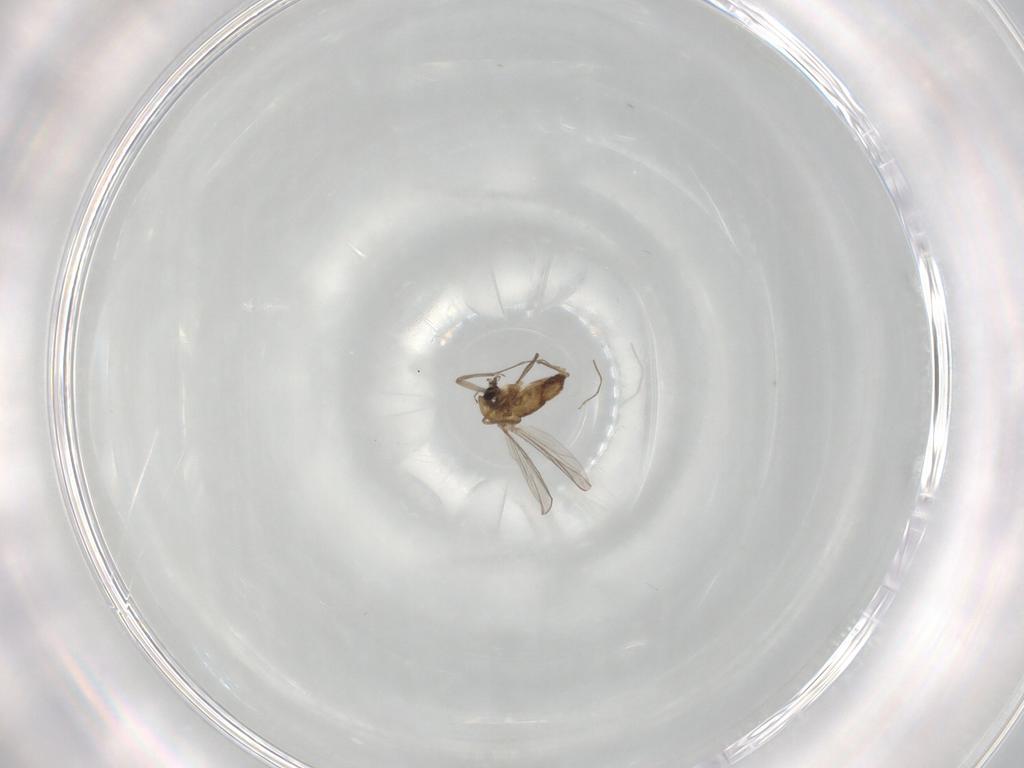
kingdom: Animalia
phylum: Arthropoda
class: Insecta
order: Diptera
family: Chironomidae
